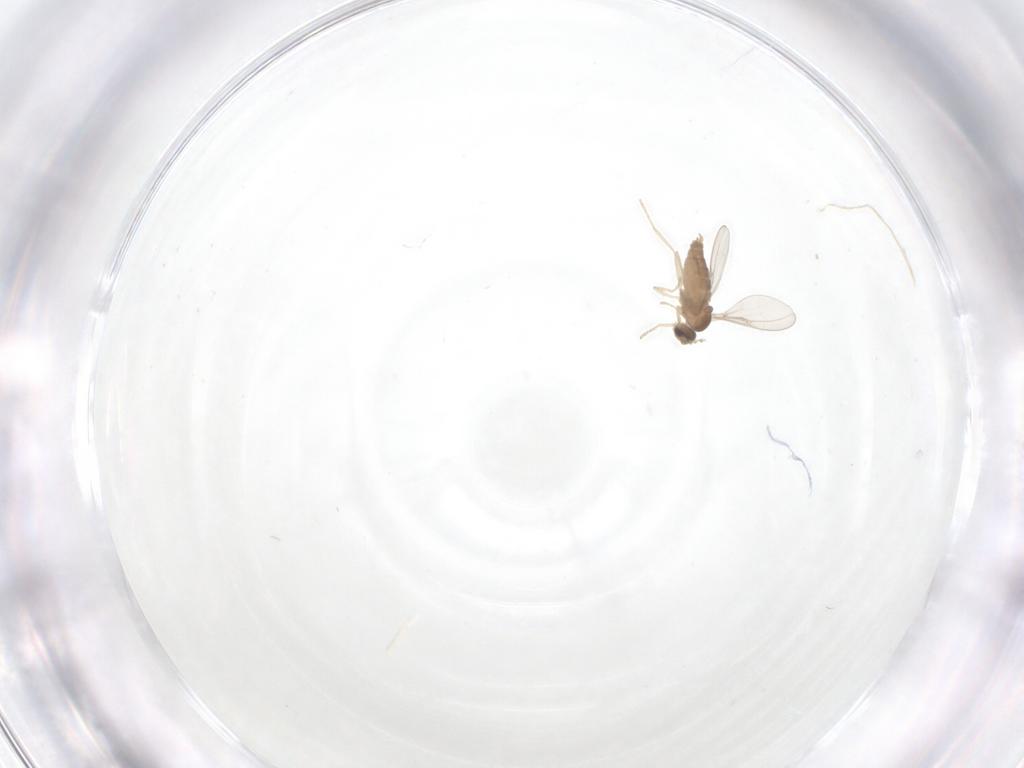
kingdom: Animalia
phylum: Arthropoda
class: Insecta
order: Diptera
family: Cecidomyiidae
